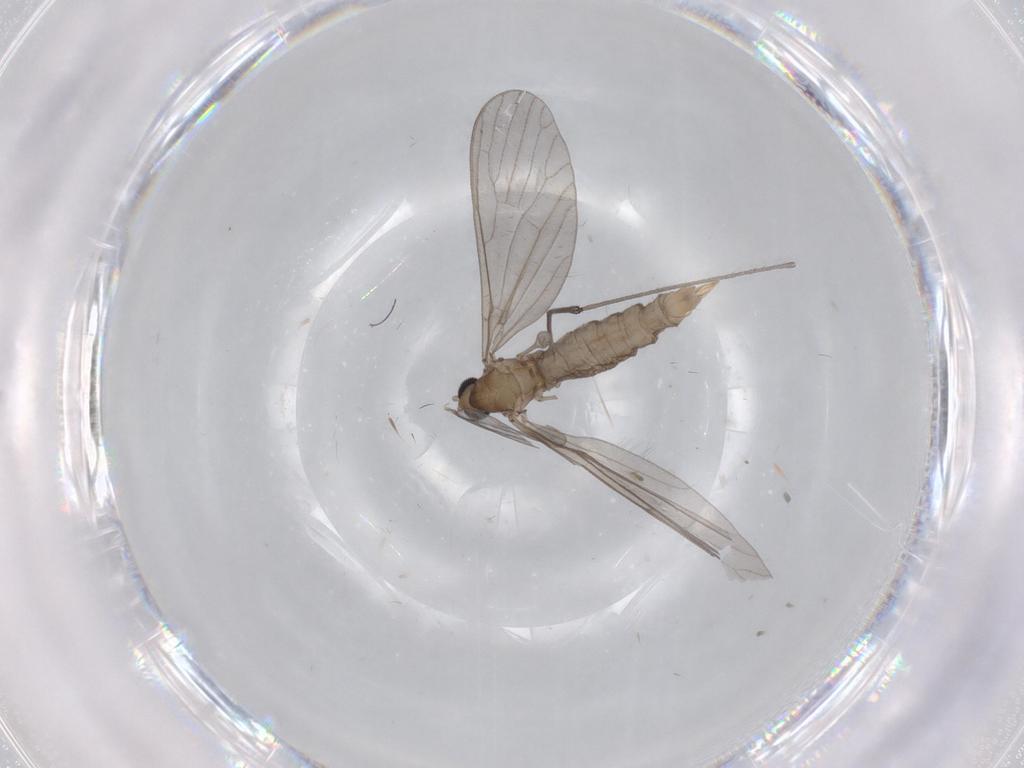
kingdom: Animalia
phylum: Arthropoda
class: Insecta
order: Diptera
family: Limoniidae
